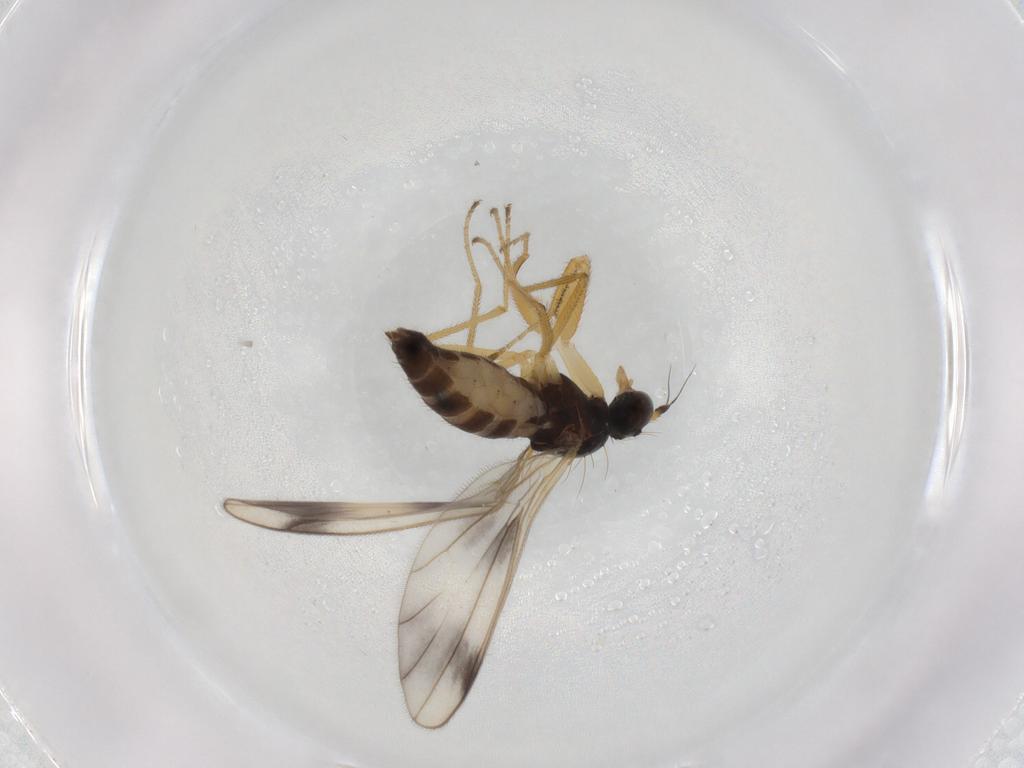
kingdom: Animalia
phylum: Arthropoda
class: Insecta
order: Diptera
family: Empididae
